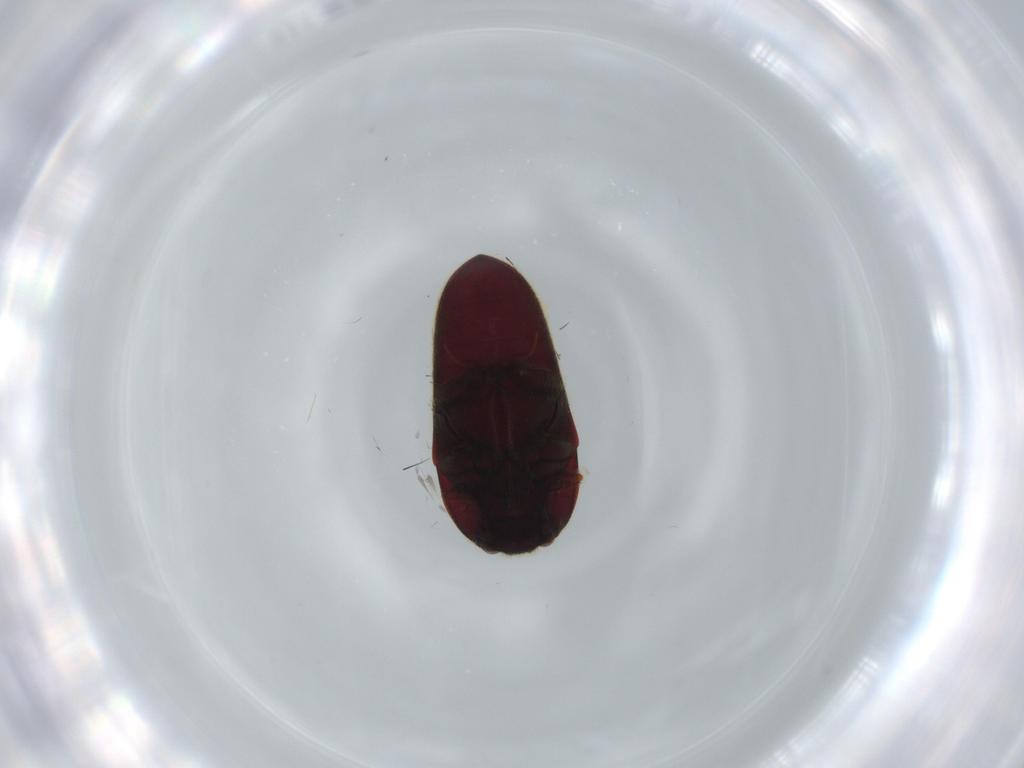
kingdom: Animalia
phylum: Arthropoda
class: Insecta
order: Coleoptera
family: Throscidae
